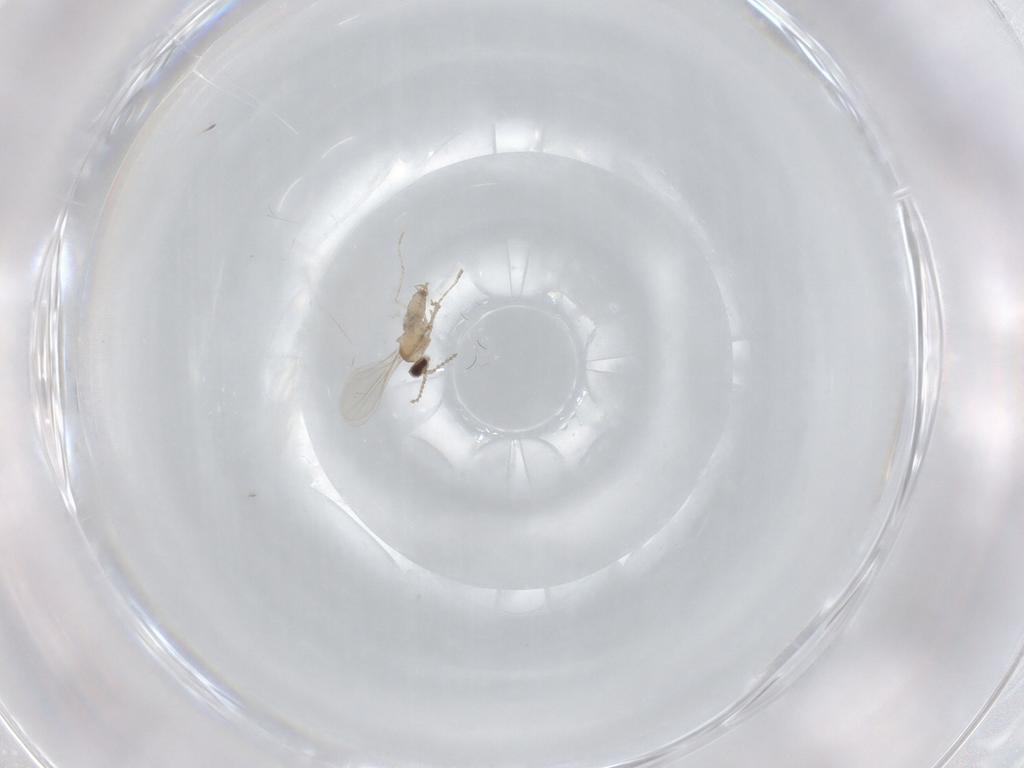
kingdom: Animalia
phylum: Arthropoda
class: Insecta
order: Diptera
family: Cecidomyiidae
